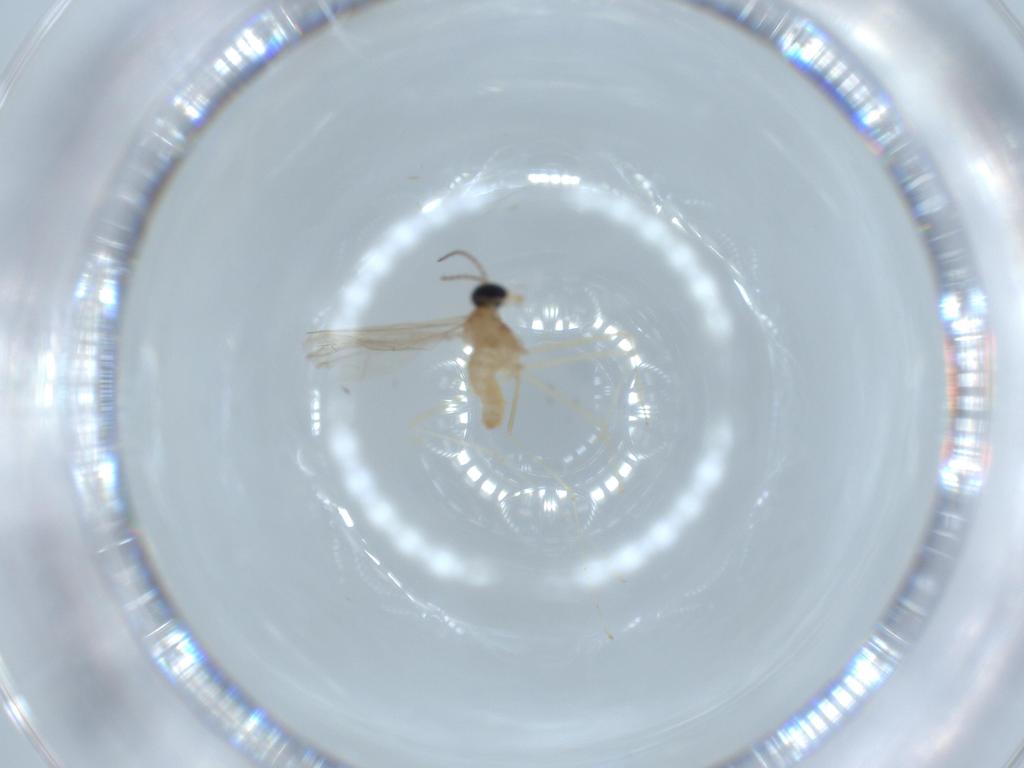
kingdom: Animalia
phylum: Arthropoda
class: Insecta
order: Diptera
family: Cecidomyiidae
